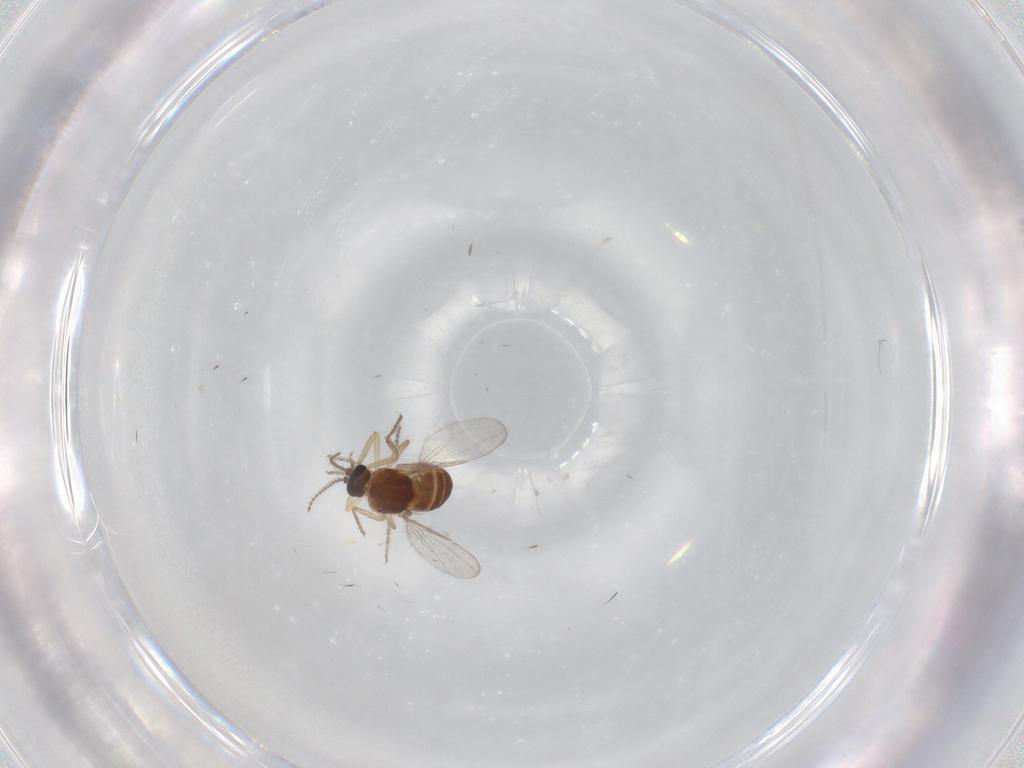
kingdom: Animalia
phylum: Arthropoda
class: Insecta
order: Diptera
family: Ceratopogonidae
